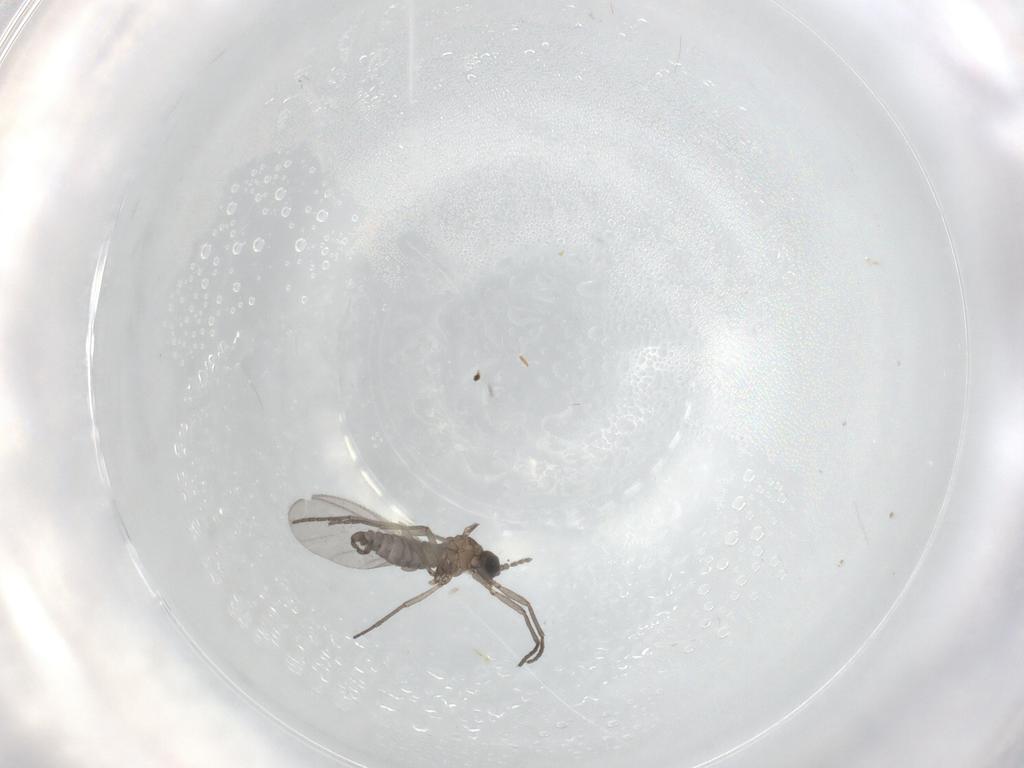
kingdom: Animalia
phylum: Arthropoda
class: Insecta
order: Diptera
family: Sciaridae
